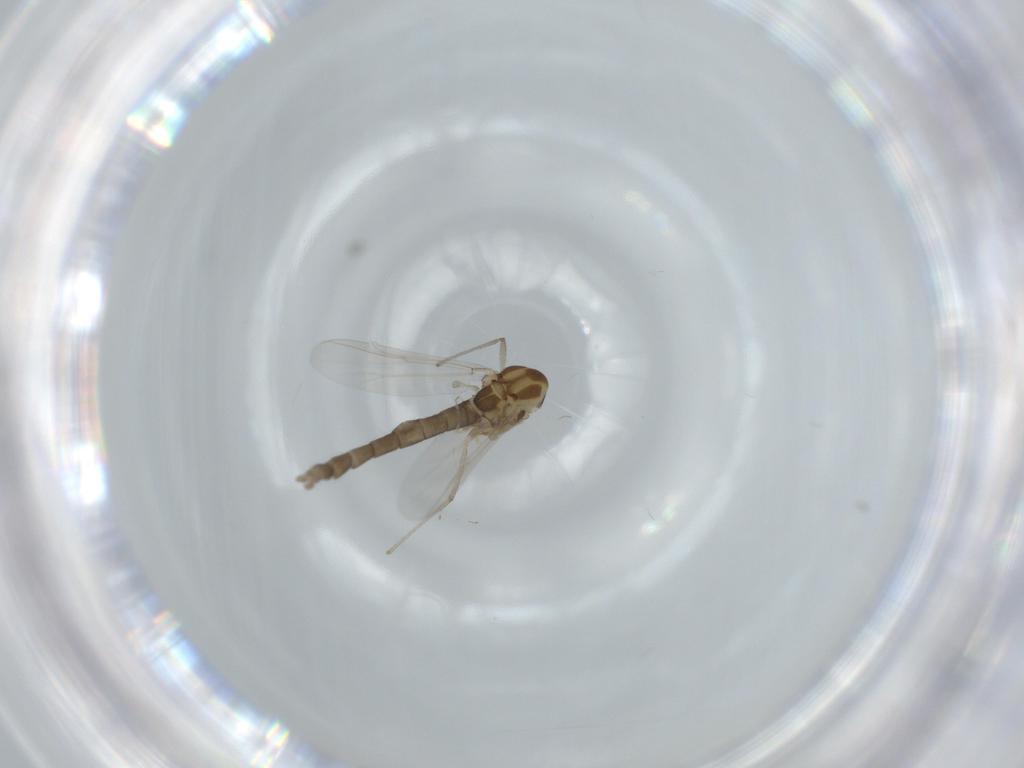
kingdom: Animalia
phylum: Arthropoda
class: Insecta
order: Diptera
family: Chironomidae
